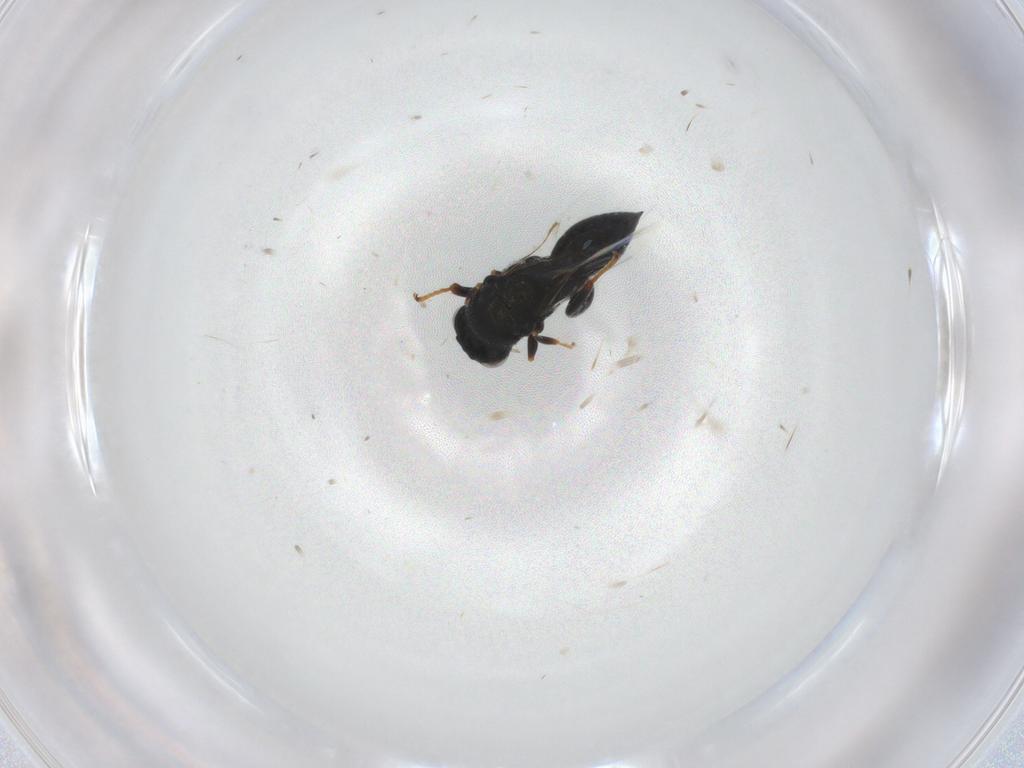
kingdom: Animalia
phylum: Arthropoda
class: Insecta
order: Hymenoptera
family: Chalcididae
